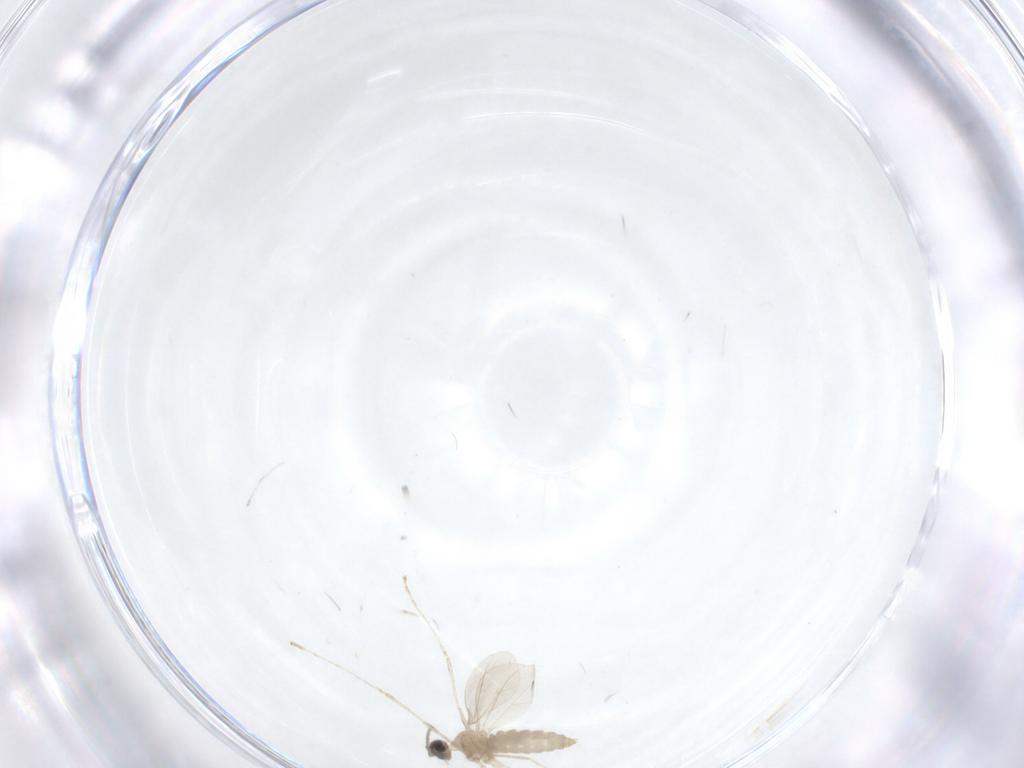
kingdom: Animalia
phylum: Arthropoda
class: Insecta
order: Diptera
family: Cecidomyiidae
